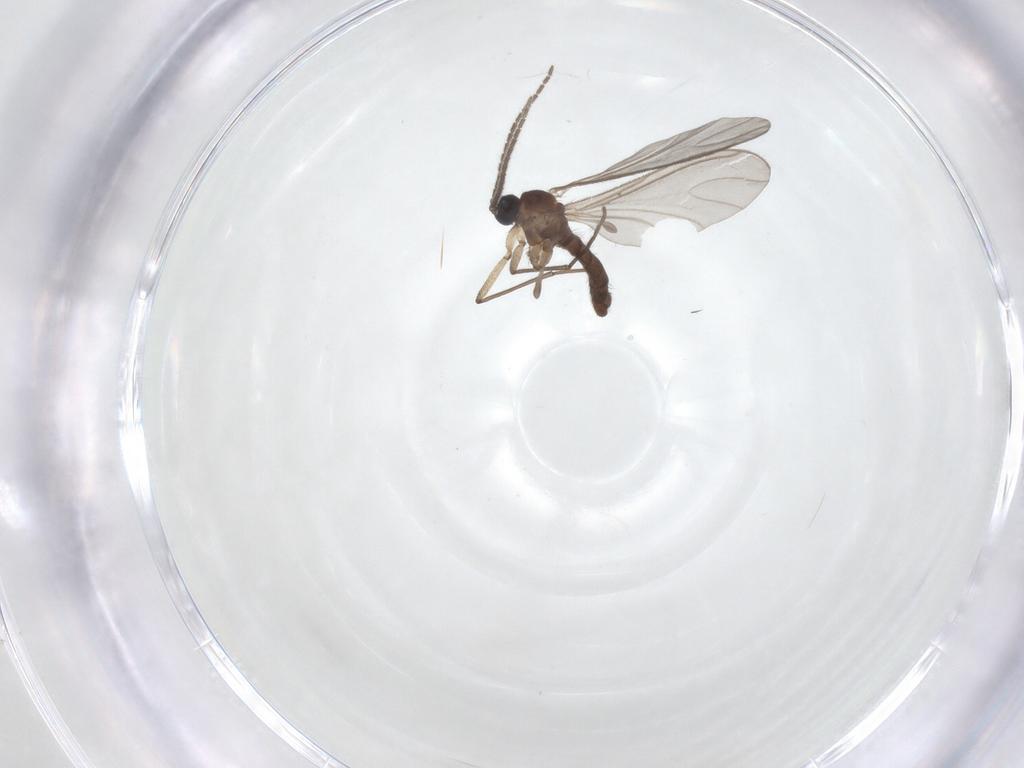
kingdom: Animalia
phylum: Arthropoda
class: Insecta
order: Diptera
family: Sciaridae
